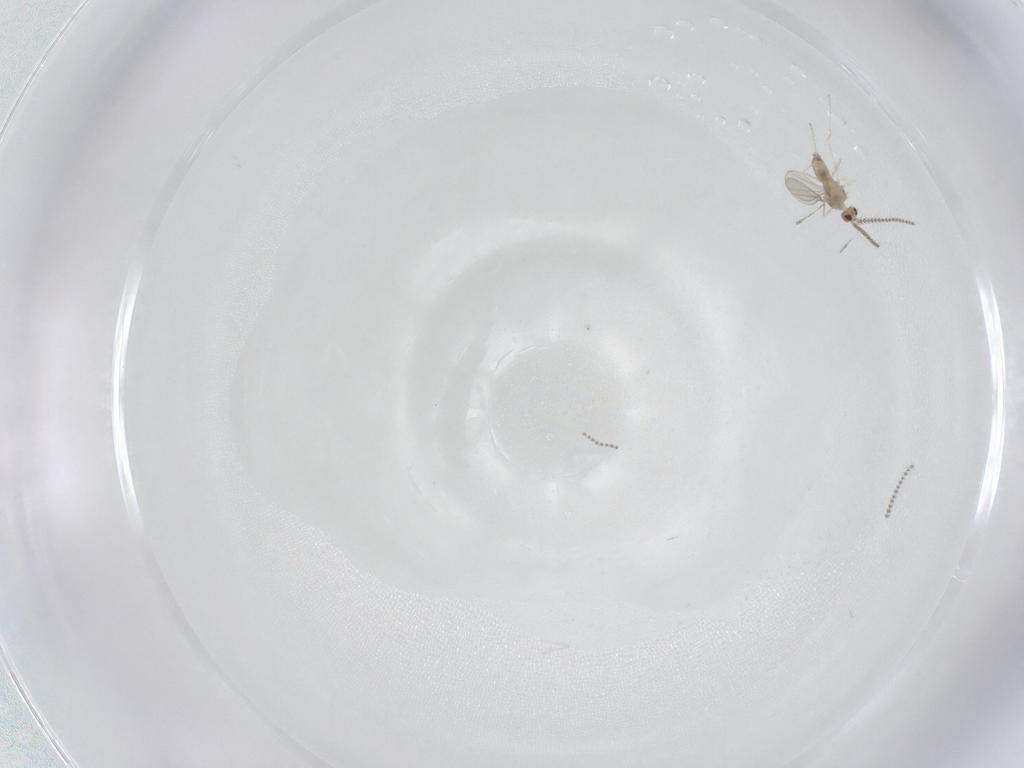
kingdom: Animalia
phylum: Arthropoda
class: Insecta
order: Diptera
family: Cecidomyiidae
